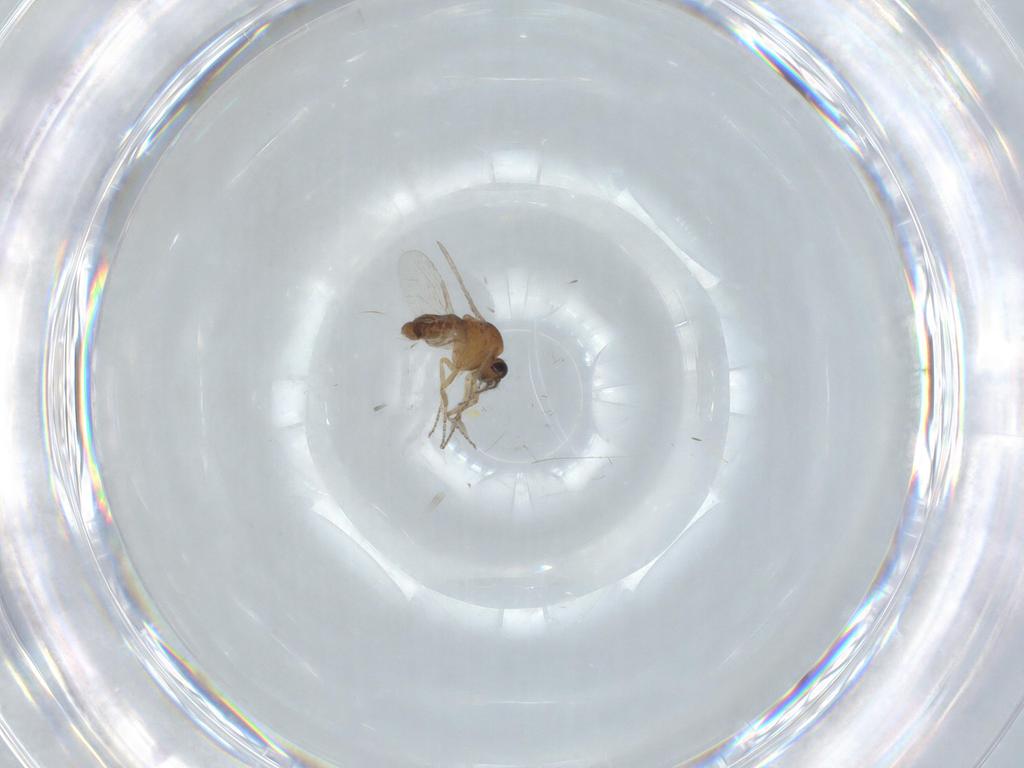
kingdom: Animalia
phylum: Arthropoda
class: Insecta
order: Diptera
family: Ceratopogonidae
